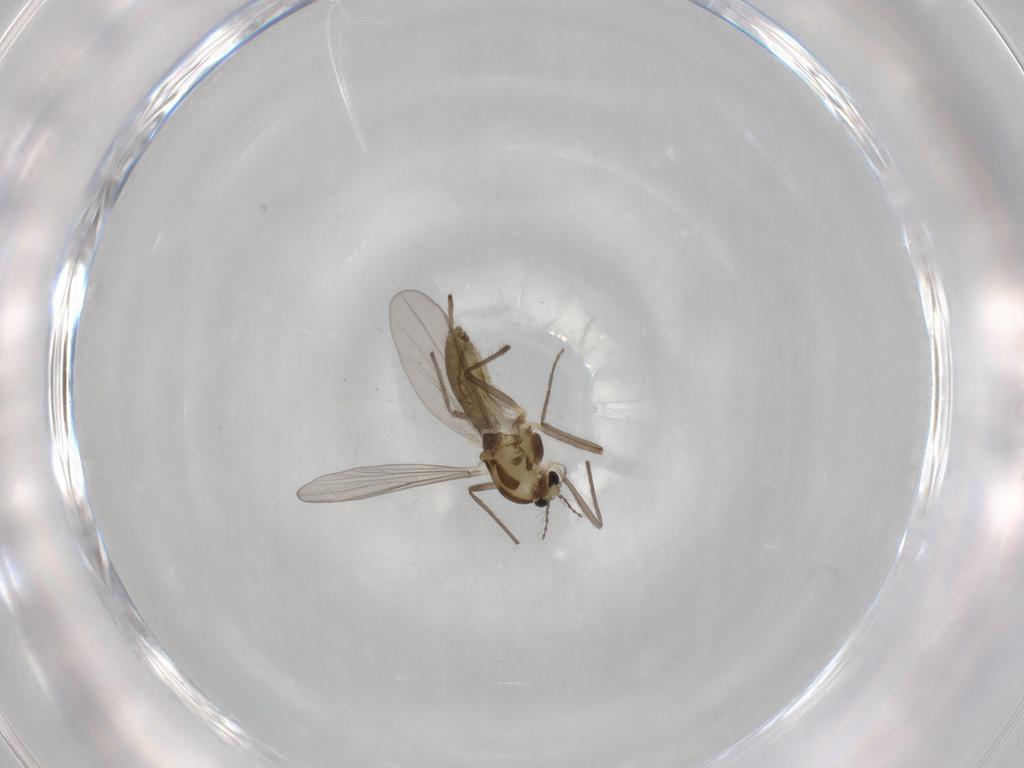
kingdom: Animalia
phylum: Arthropoda
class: Insecta
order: Diptera
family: Chironomidae
